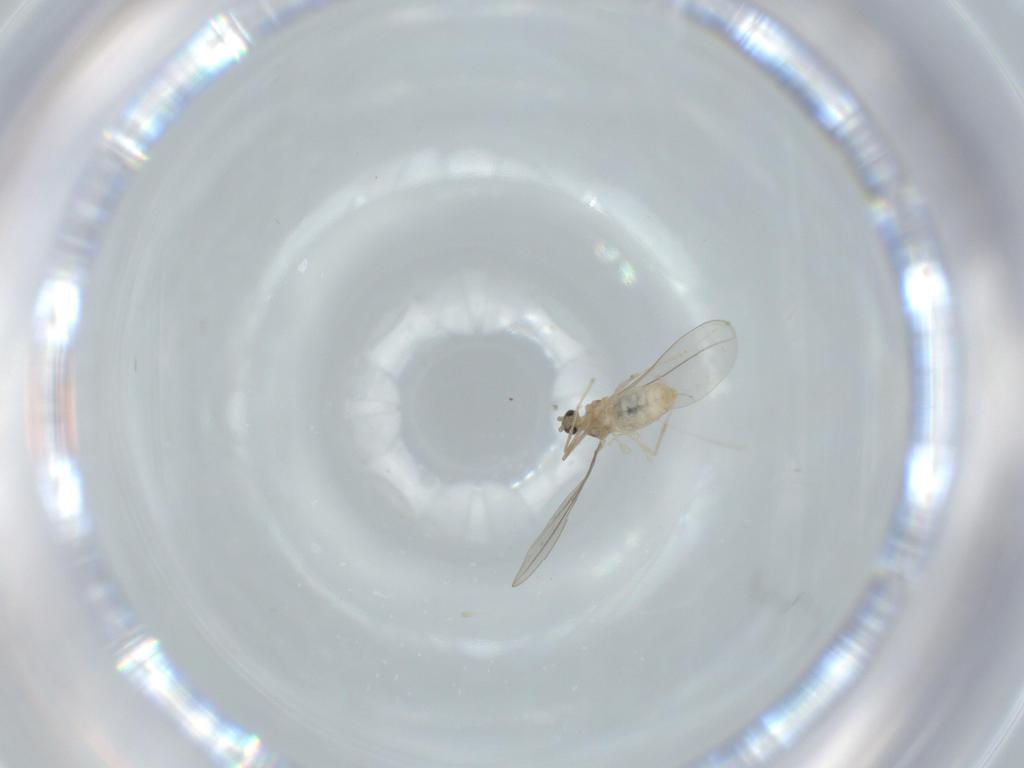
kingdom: Animalia
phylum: Arthropoda
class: Insecta
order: Diptera
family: Cecidomyiidae
